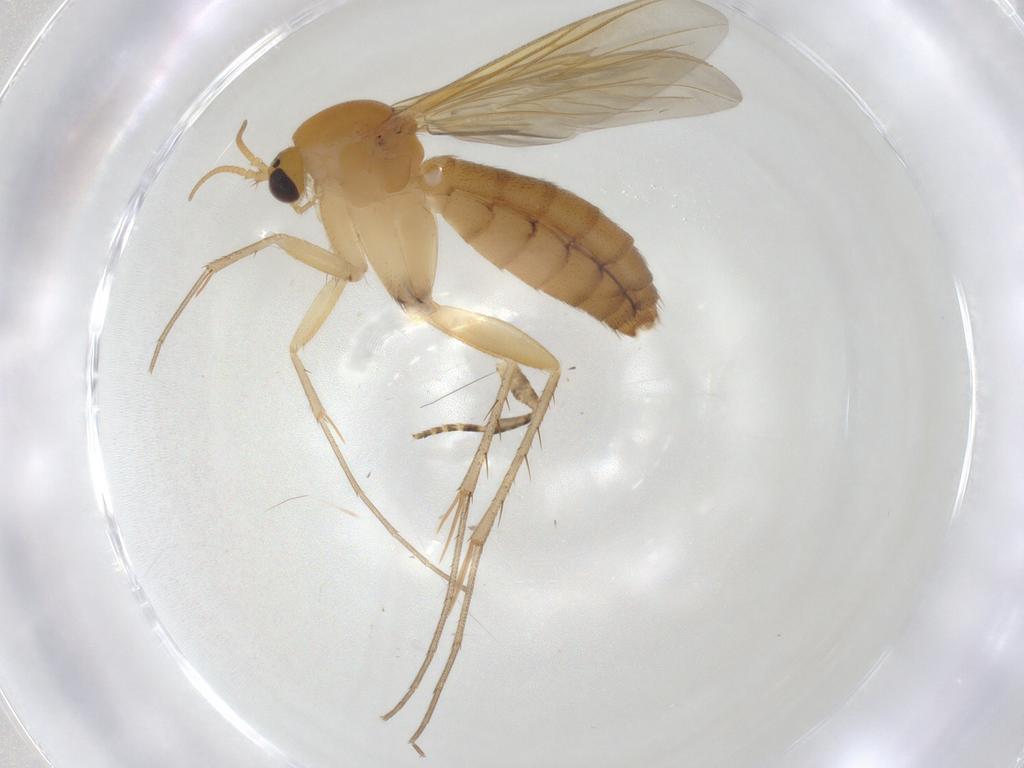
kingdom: Animalia
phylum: Arthropoda
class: Insecta
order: Diptera
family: Mycetophilidae
